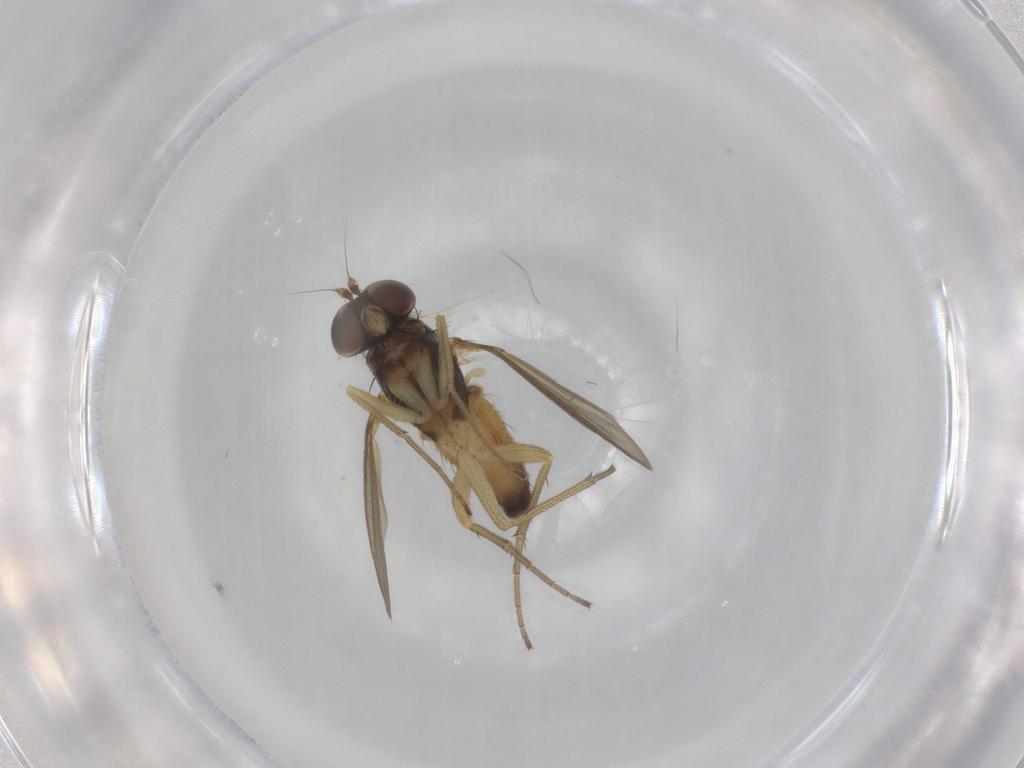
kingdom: Animalia
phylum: Arthropoda
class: Insecta
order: Diptera
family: Dolichopodidae
